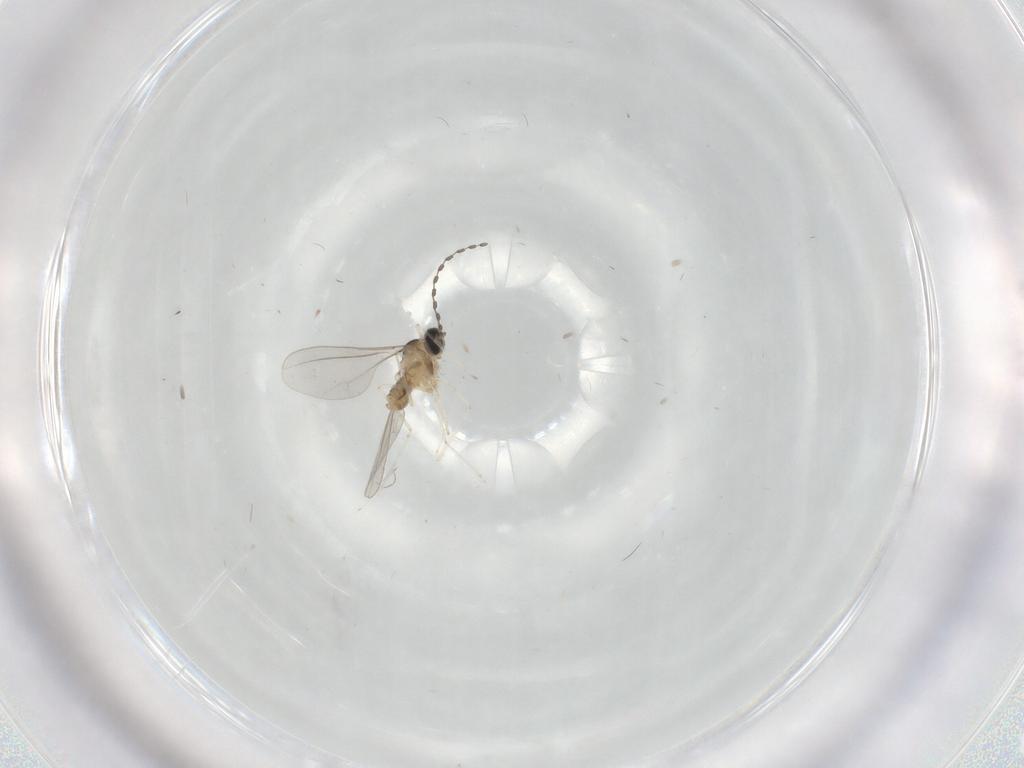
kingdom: Animalia
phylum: Arthropoda
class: Insecta
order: Diptera
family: Cecidomyiidae
